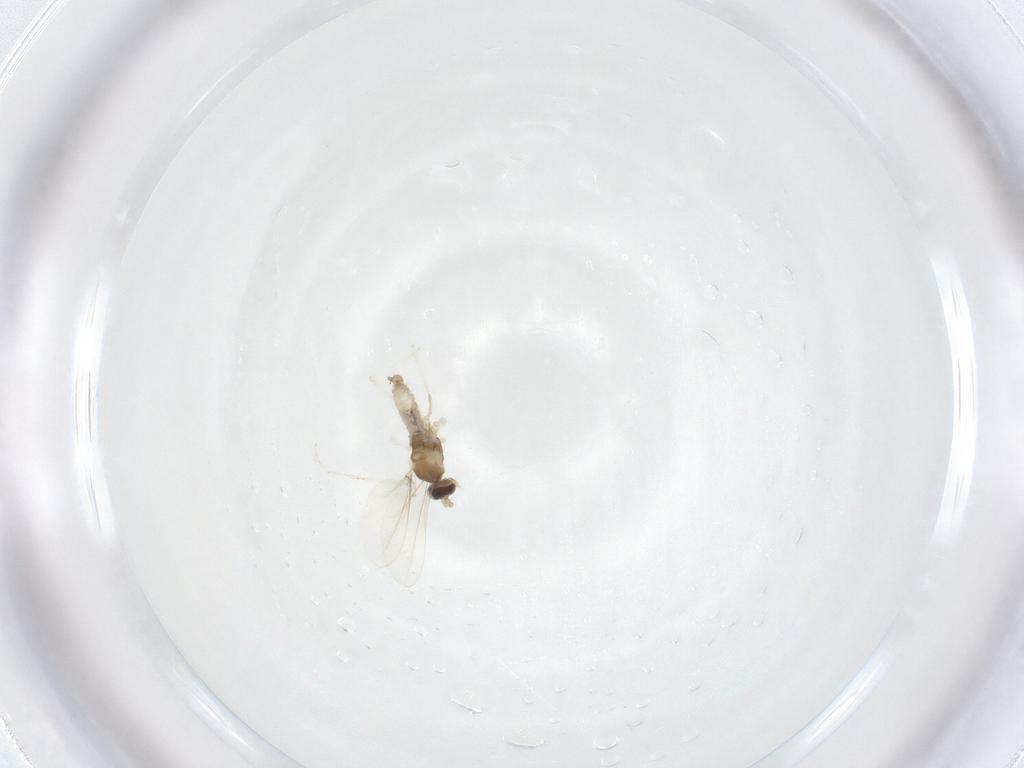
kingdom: Animalia
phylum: Arthropoda
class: Insecta
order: Diptera
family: Cecidomyiidae
